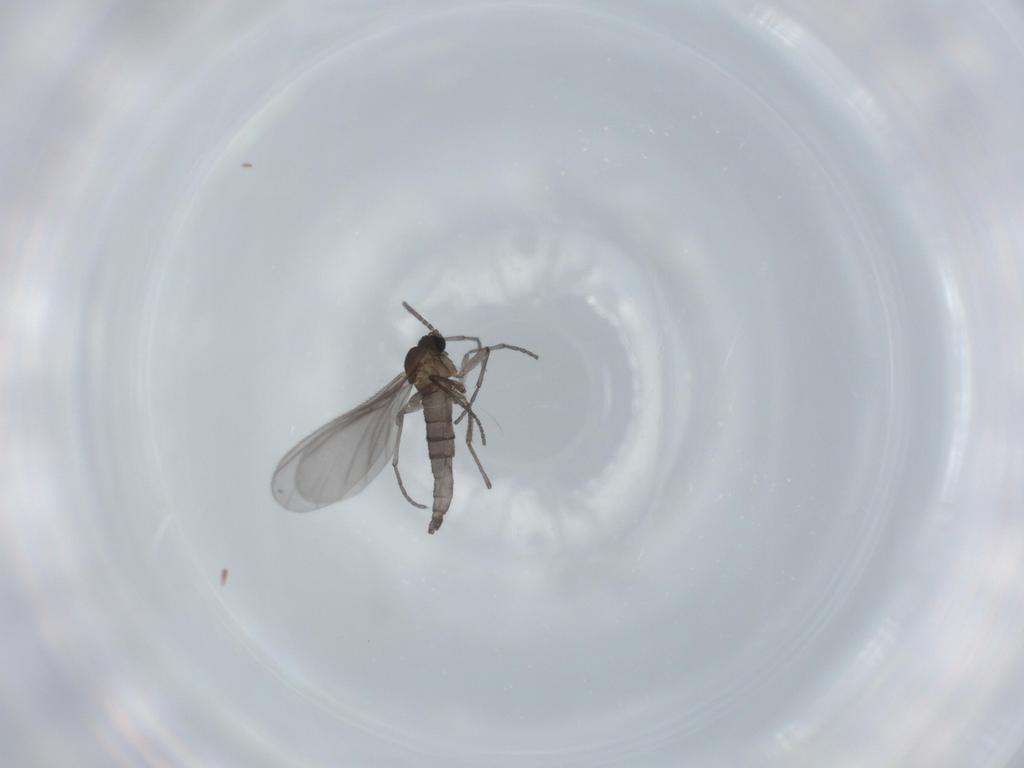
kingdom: Animalia
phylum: Arthropoda
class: Insecta
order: Diptera
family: Sciaridae
